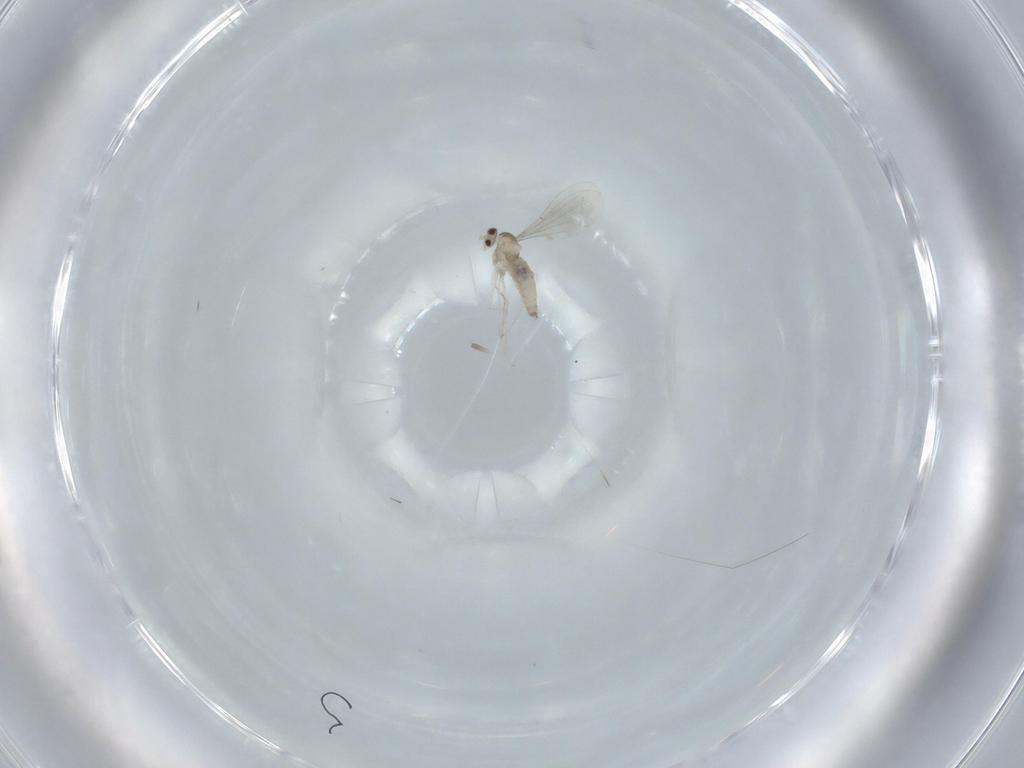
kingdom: Animalia
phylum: Arthropoda
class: Insecta
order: Diptera
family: Cecidomyiidae
